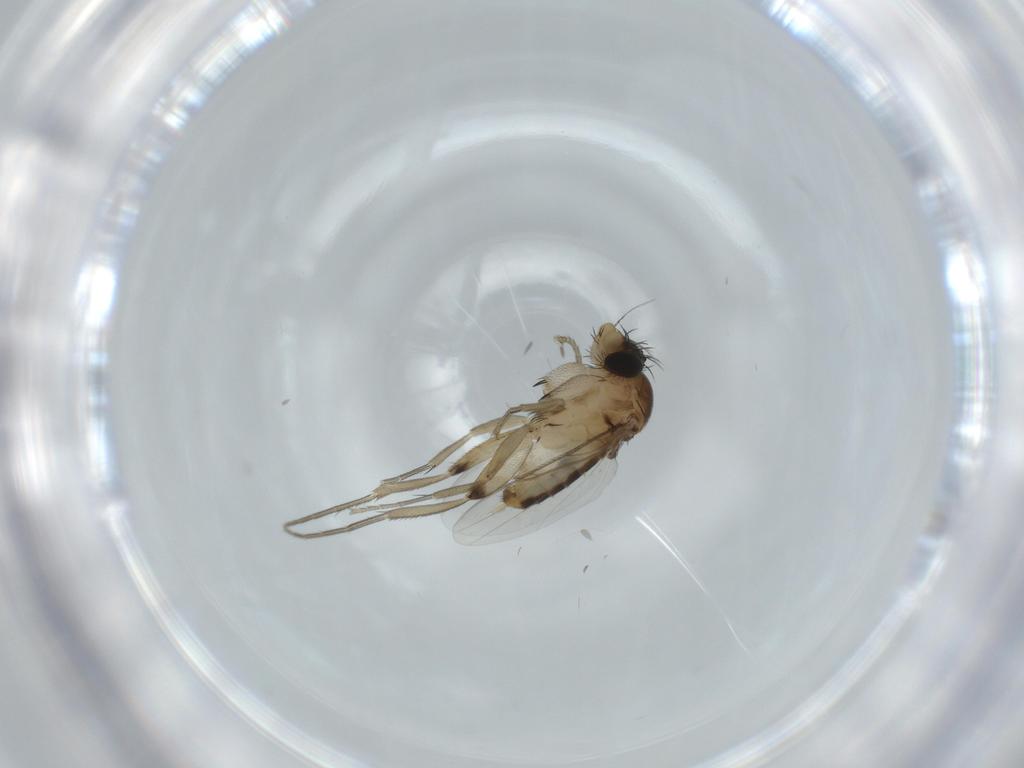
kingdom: Animalia
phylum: Arthropoda
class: Insecta
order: Diptera
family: Phoridae
